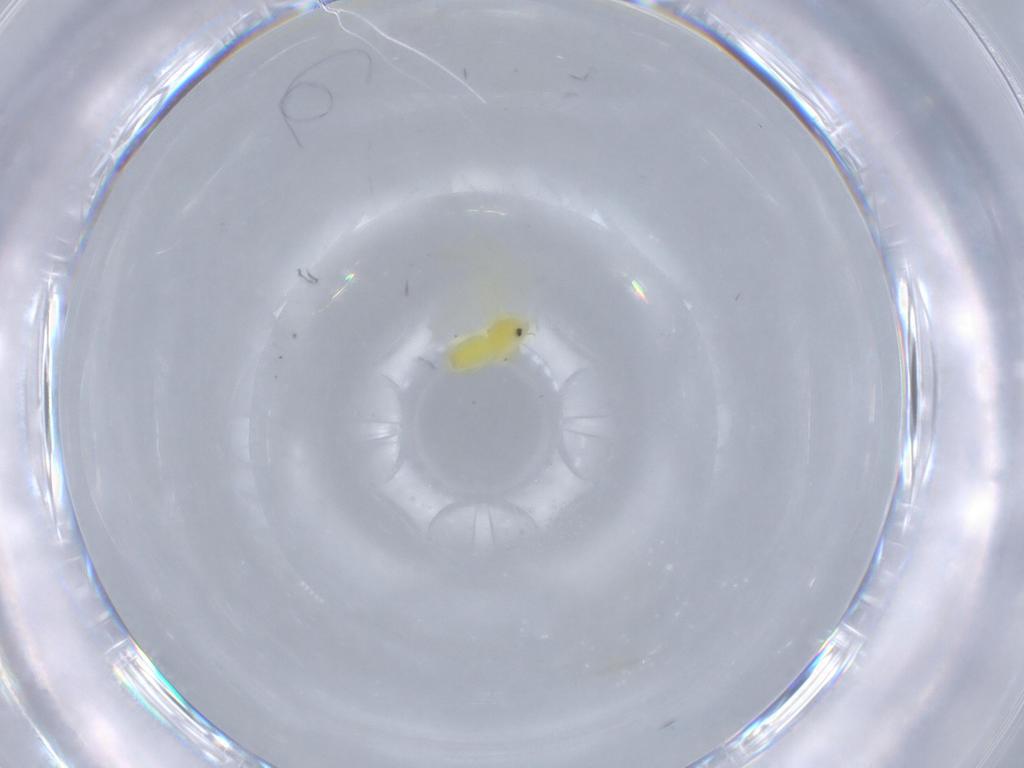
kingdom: Animalia
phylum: Arthropoda
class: Insecta
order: Hemiptera
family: Aleyrodidae
